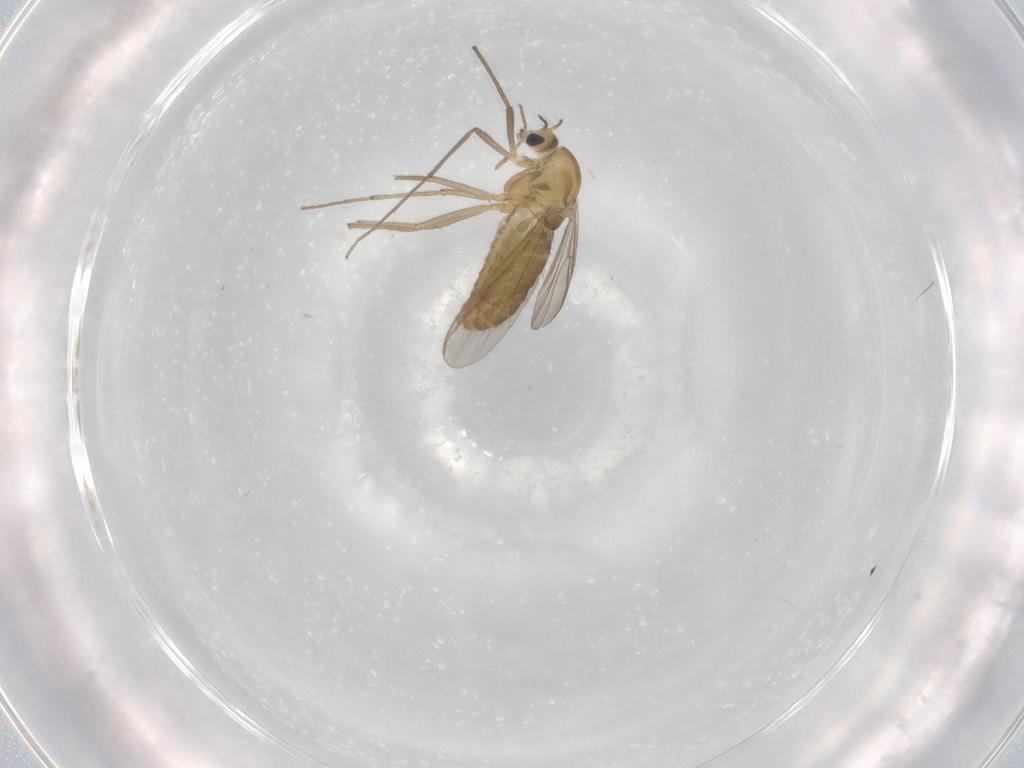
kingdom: Animalia
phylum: Arthropoda
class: Insecta
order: Diptera
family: Chironomidae
